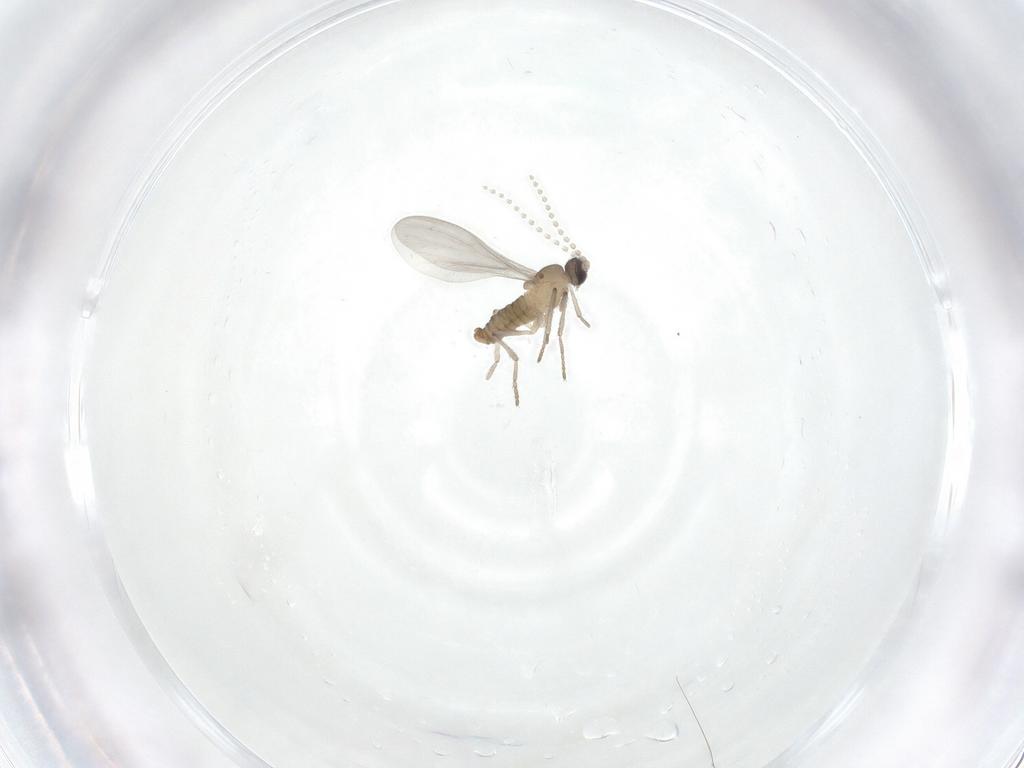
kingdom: Animalia
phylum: Arthropoda
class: Insecta
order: Diptera
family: Cecidomyiidae
